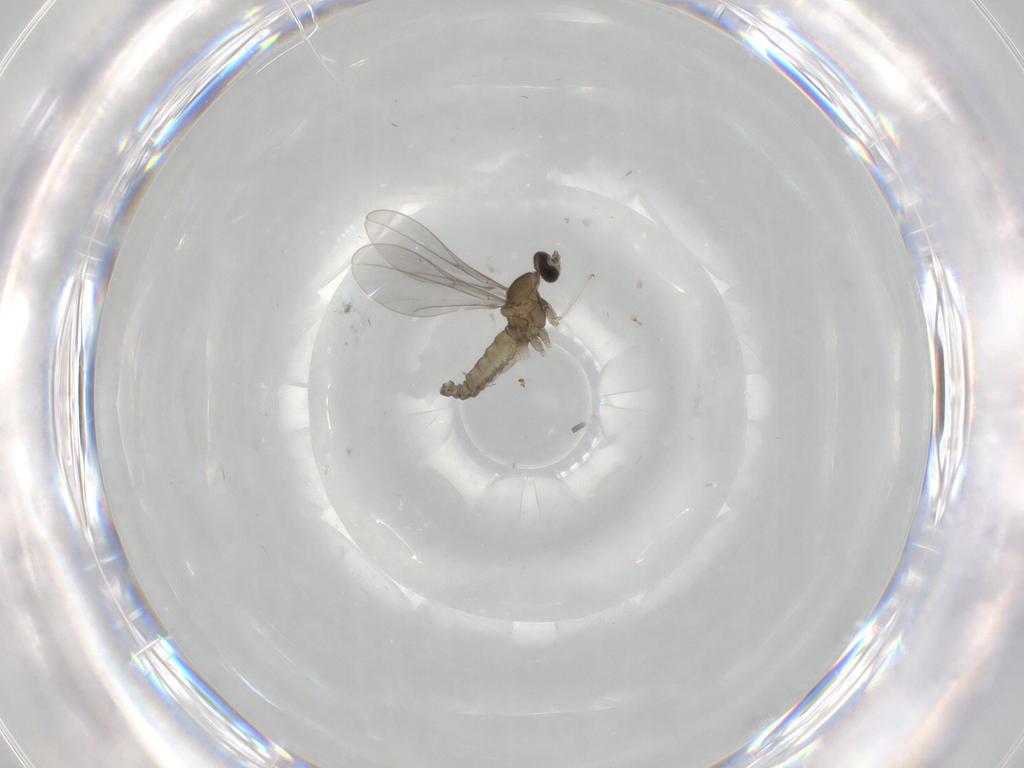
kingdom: Animalia
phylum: Arthropoda
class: Insecta
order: Diptera
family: Cecidomyiidae
